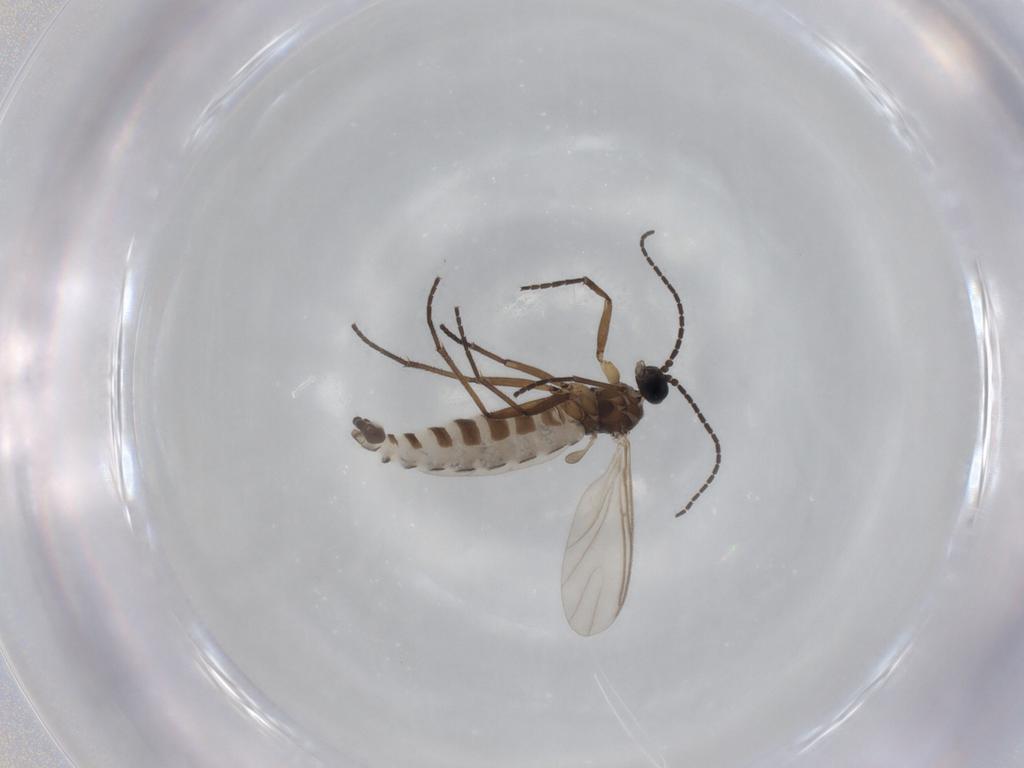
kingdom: Animalia
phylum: Arthropoda
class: Insecta
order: Diptera
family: Sciaridae
